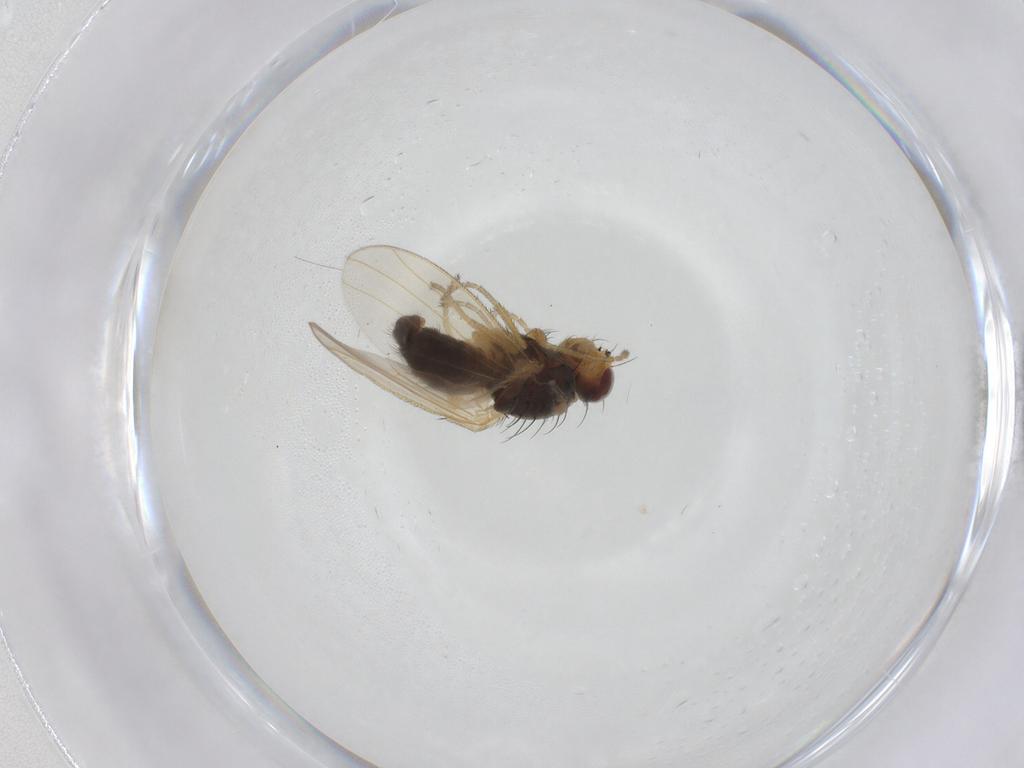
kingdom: Animalia
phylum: Arthropoda
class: Insecta
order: Diptera
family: Heleomyzidae
